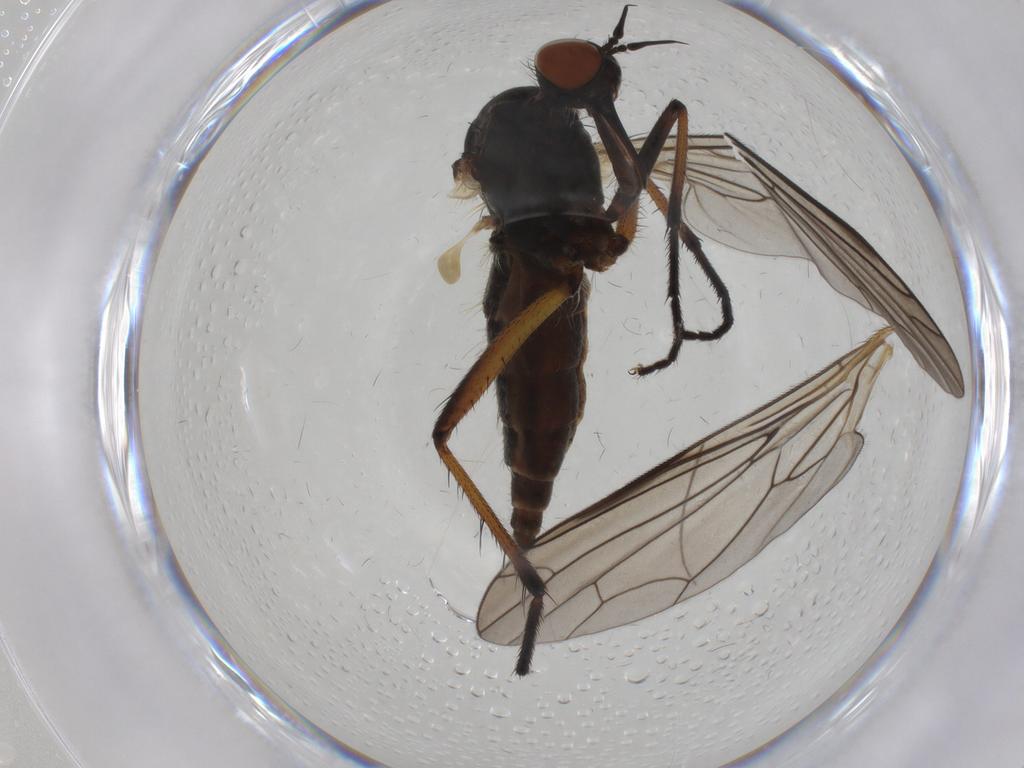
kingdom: Animalia
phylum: Arthropoda
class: Insecta
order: Diptera
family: Empididae
